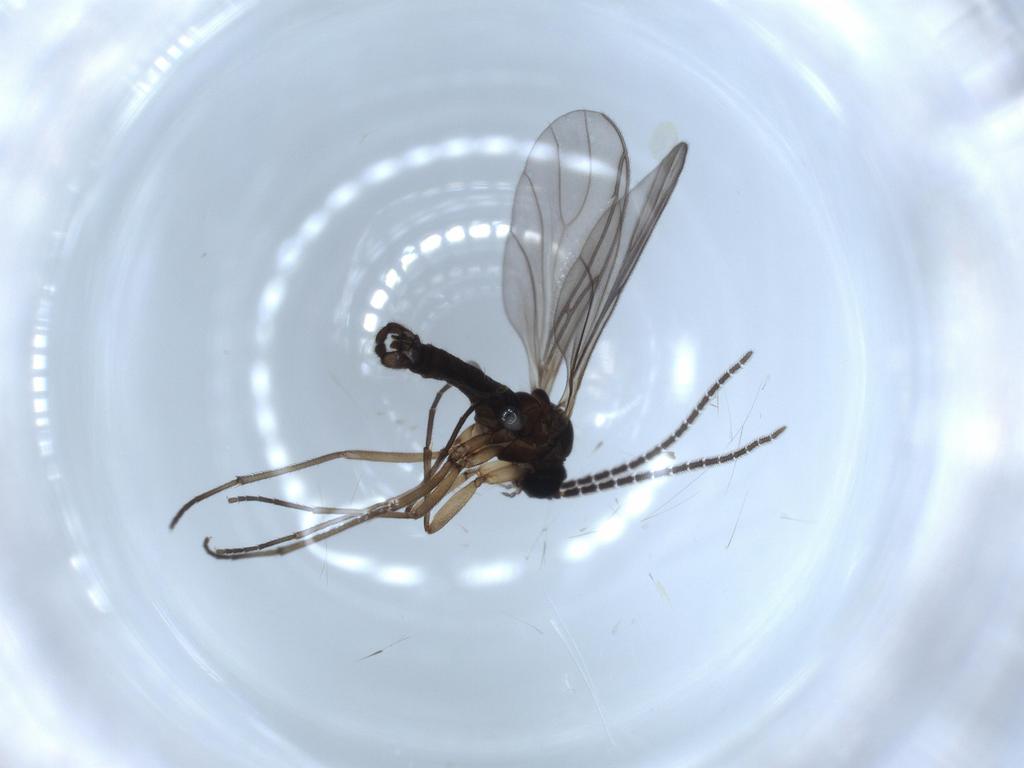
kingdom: Animalia
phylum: Arthropoda
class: Insecta
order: Diptera
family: Sciaridae
